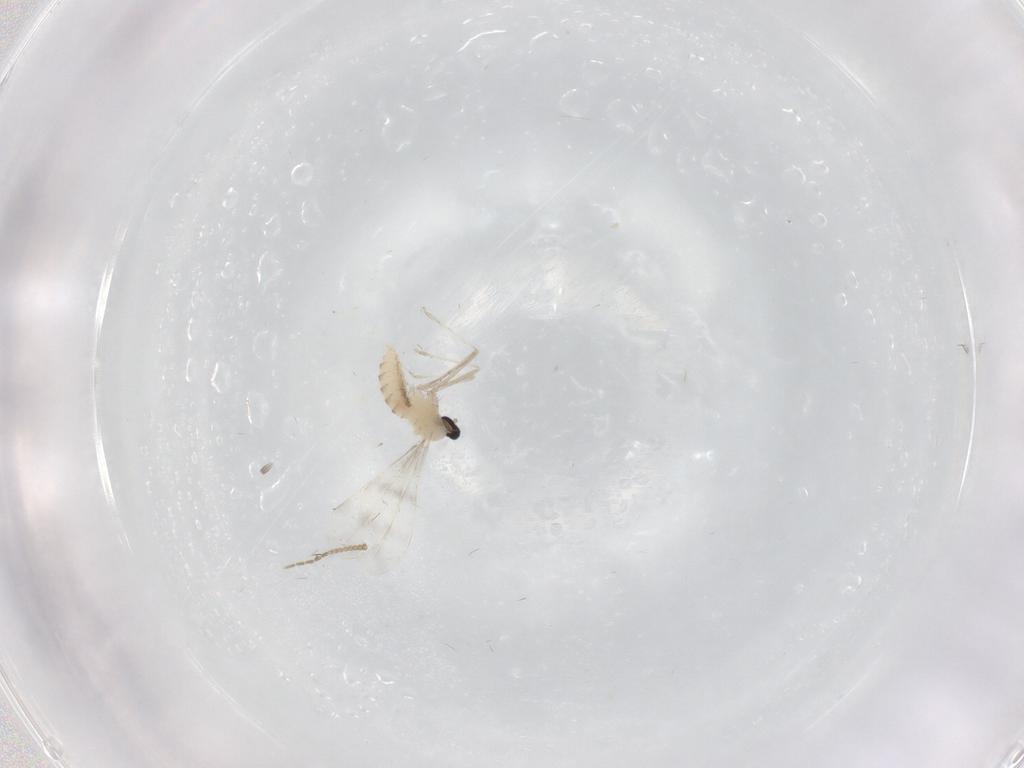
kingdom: Animalia
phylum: Arthropoda
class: Insecta
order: Diptera
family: Cecidomyiidae
